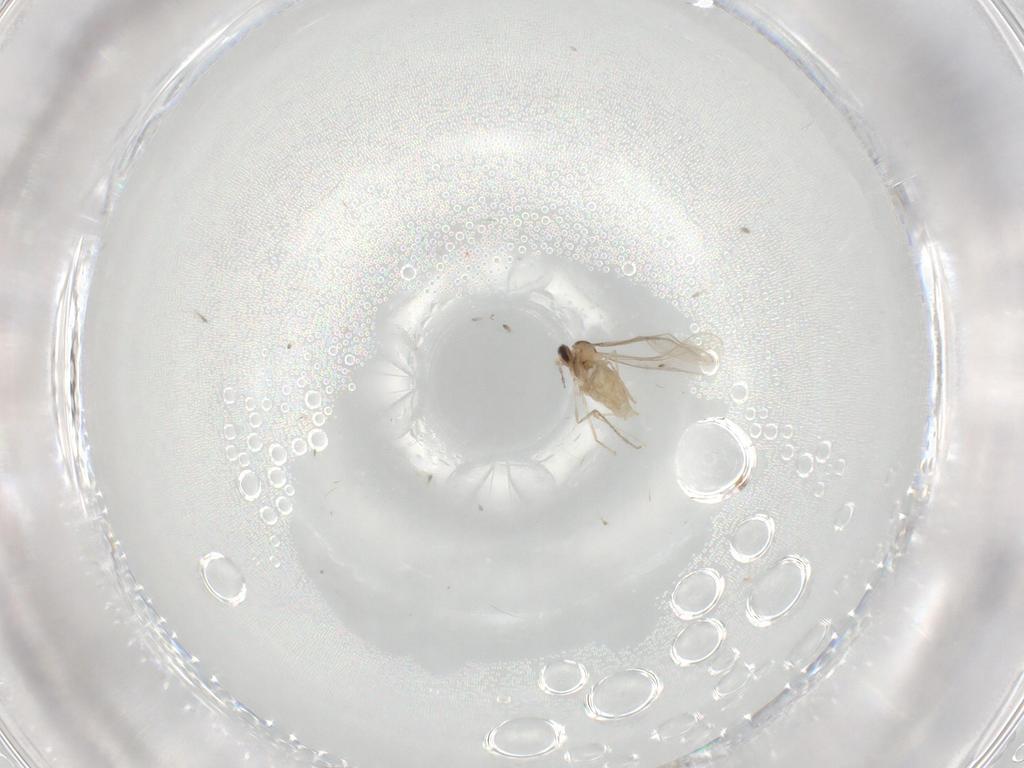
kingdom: Animalia
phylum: Arthropoda
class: Insecta
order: Diptera
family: Cecidomyiidae
